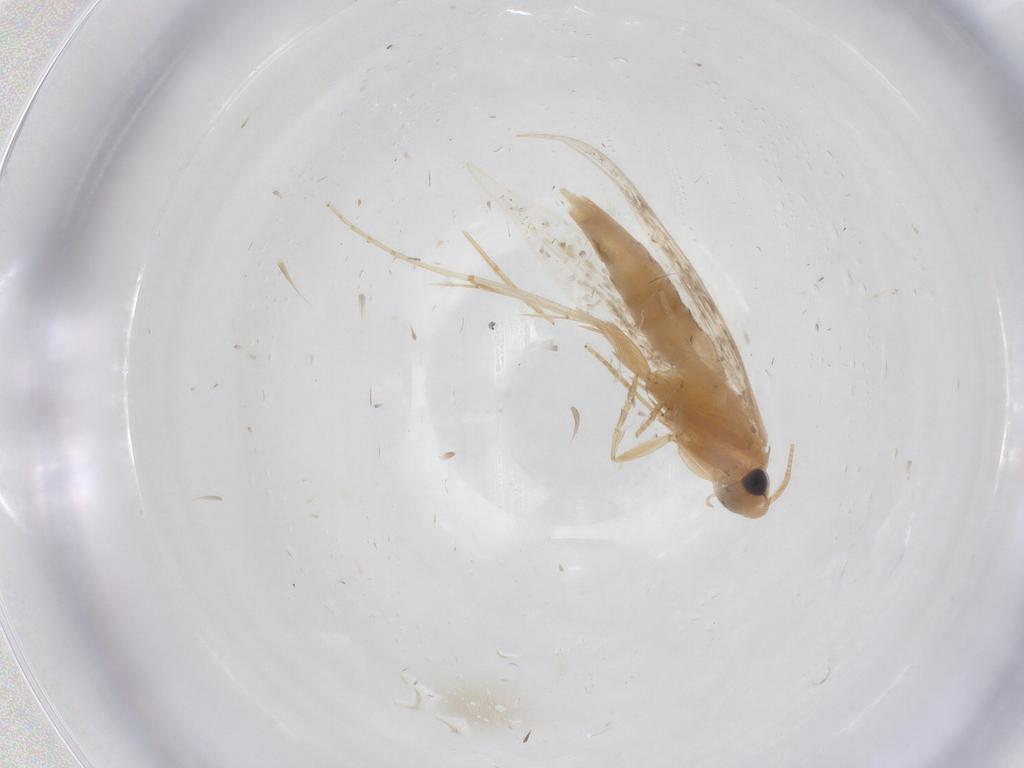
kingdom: Animalia
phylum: Arthropoda
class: Insecta
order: Lepidoptera
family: Tineidae
